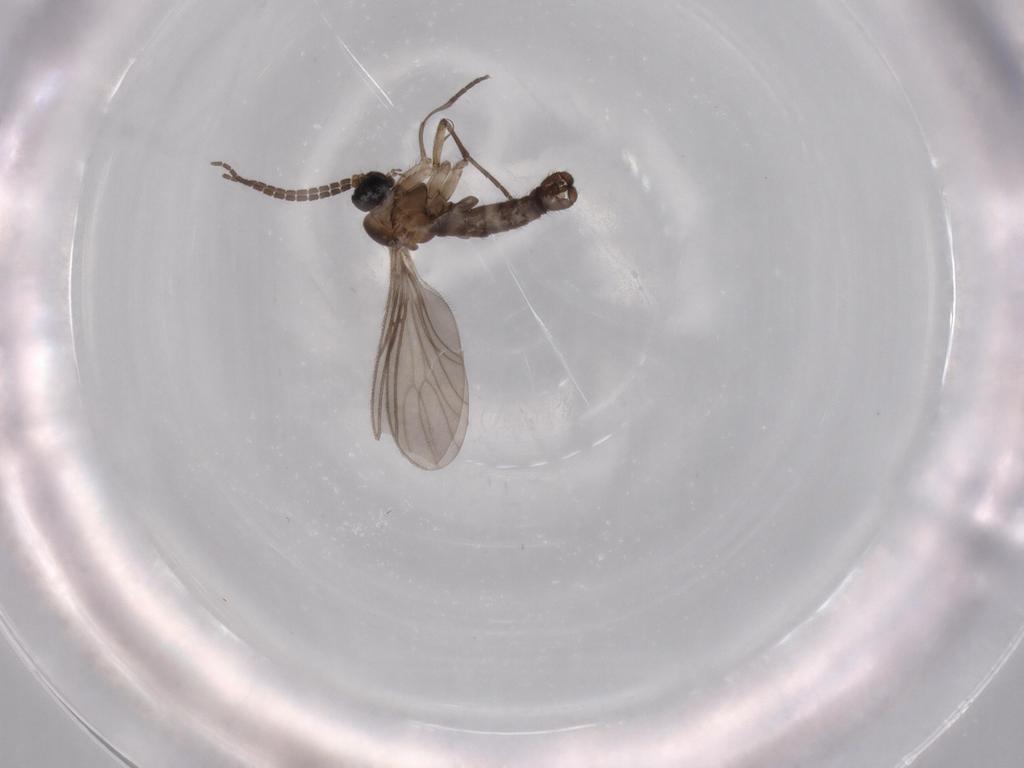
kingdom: Animalia
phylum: Arthropoda
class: Insecta
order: Diptera
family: Sciaridae
